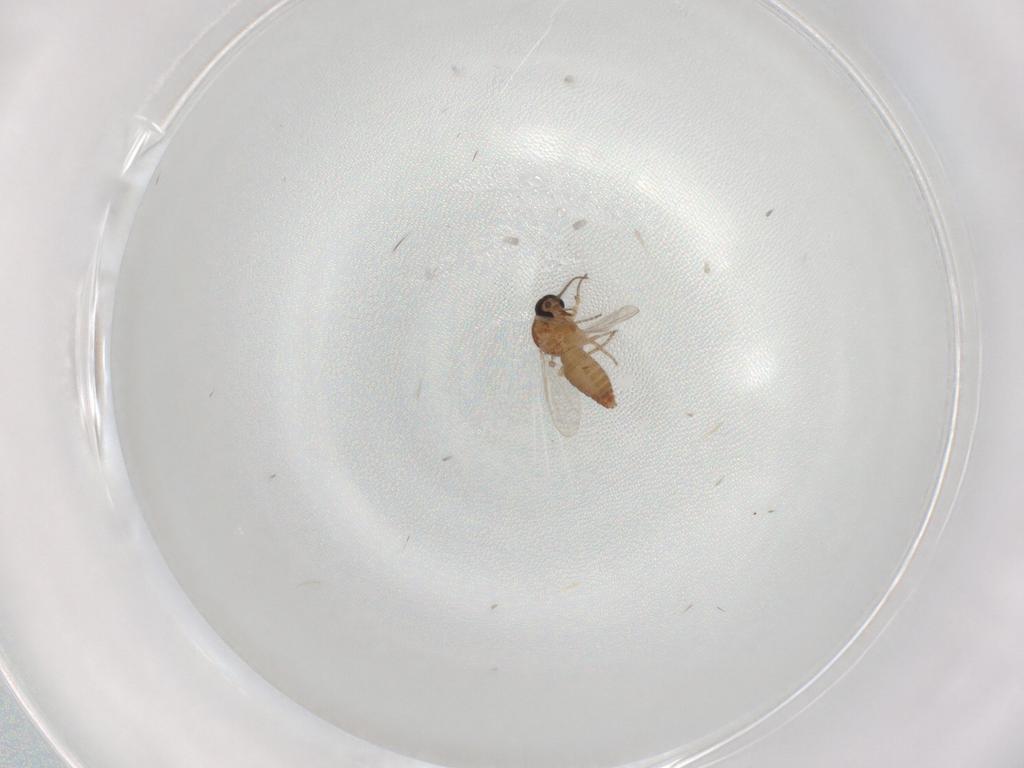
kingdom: Animalia
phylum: Arthropoda
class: Insecta
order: Diptera
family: Ceratopogonidae
